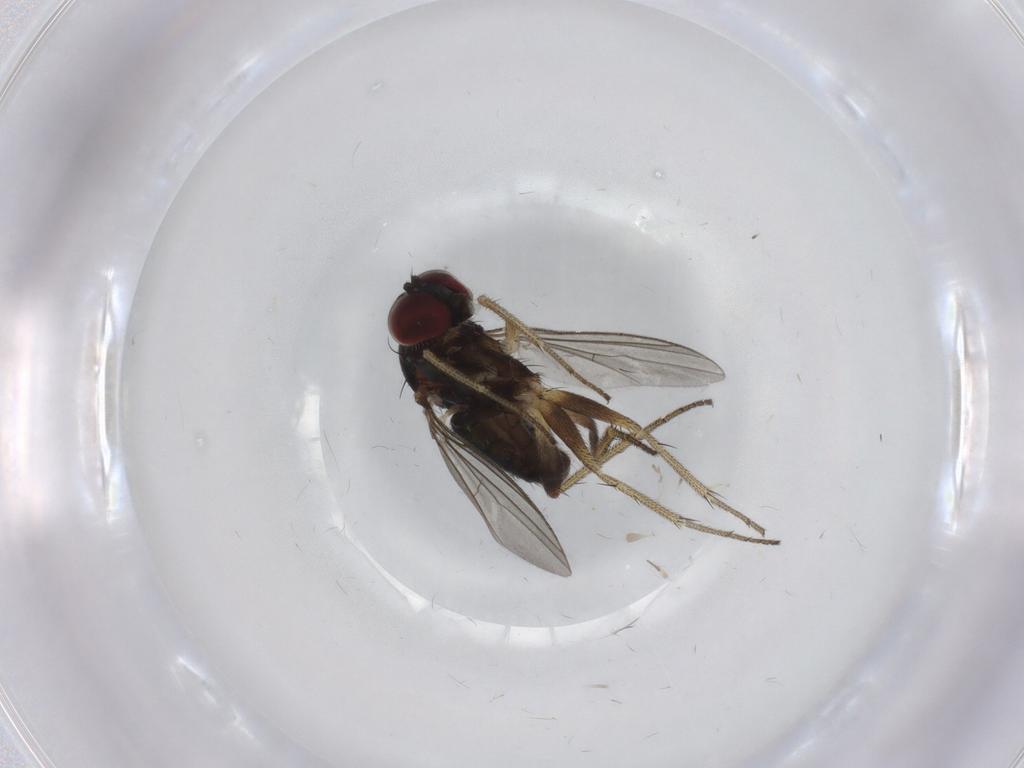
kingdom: Animalia
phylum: Arthropoda
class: Insecta
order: Diptera
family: Dolichopodidae
